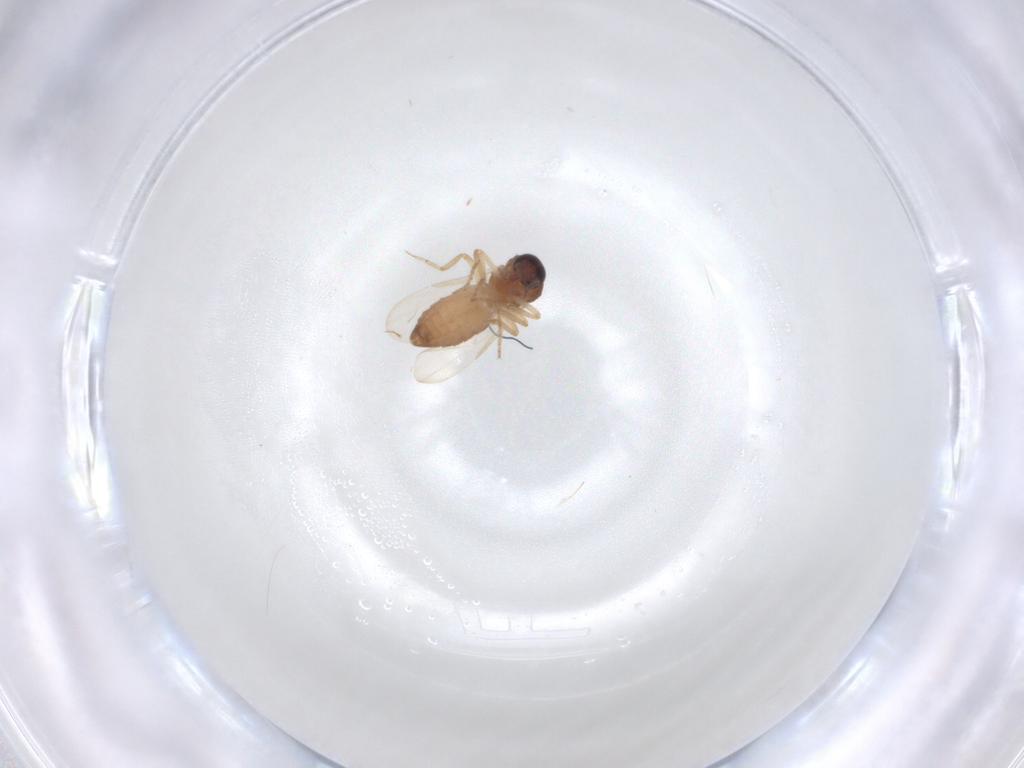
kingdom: Animalia
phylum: Arthropoda
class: Insecta
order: Diptera
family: Ceratopogonidae
